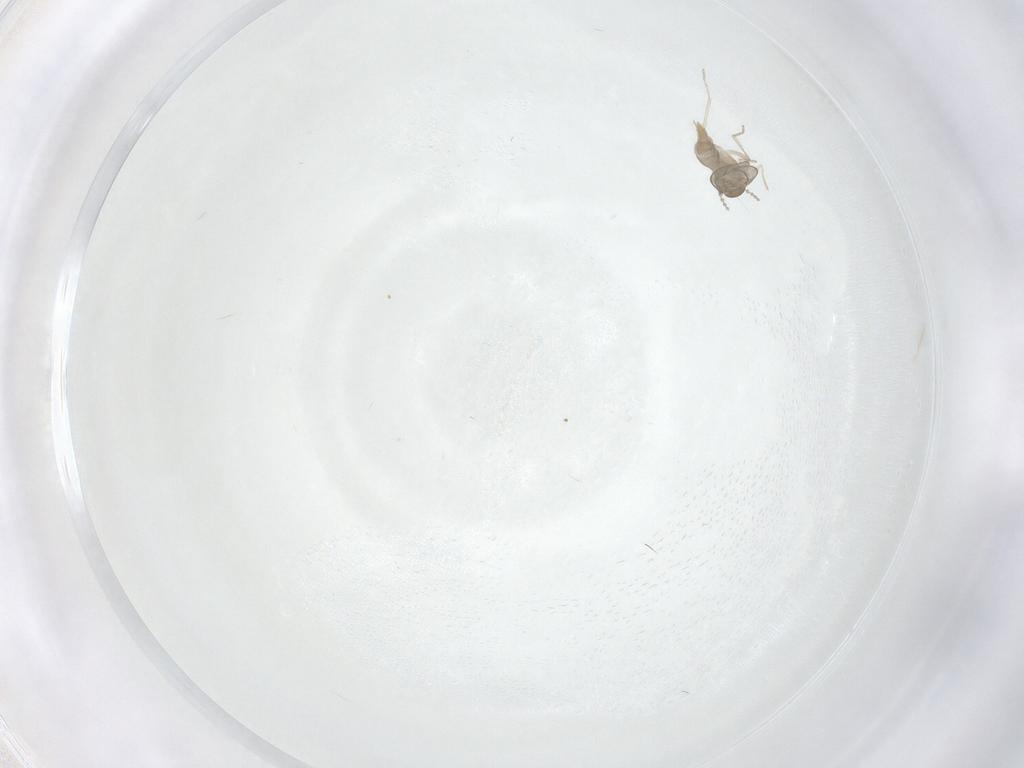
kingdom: Animalia
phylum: Arthropoda
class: Insecta
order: Diptera
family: Cecidomyiidae
